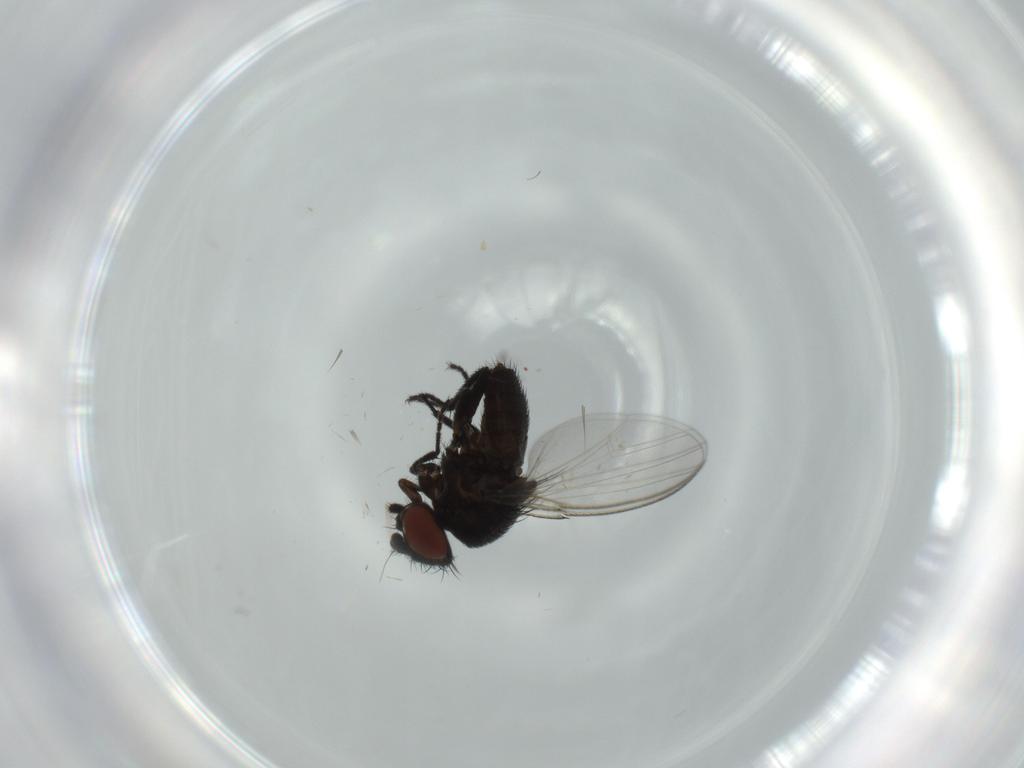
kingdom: Animalia
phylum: Arthropoda
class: Insecta
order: Diptera
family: Milichiidae
